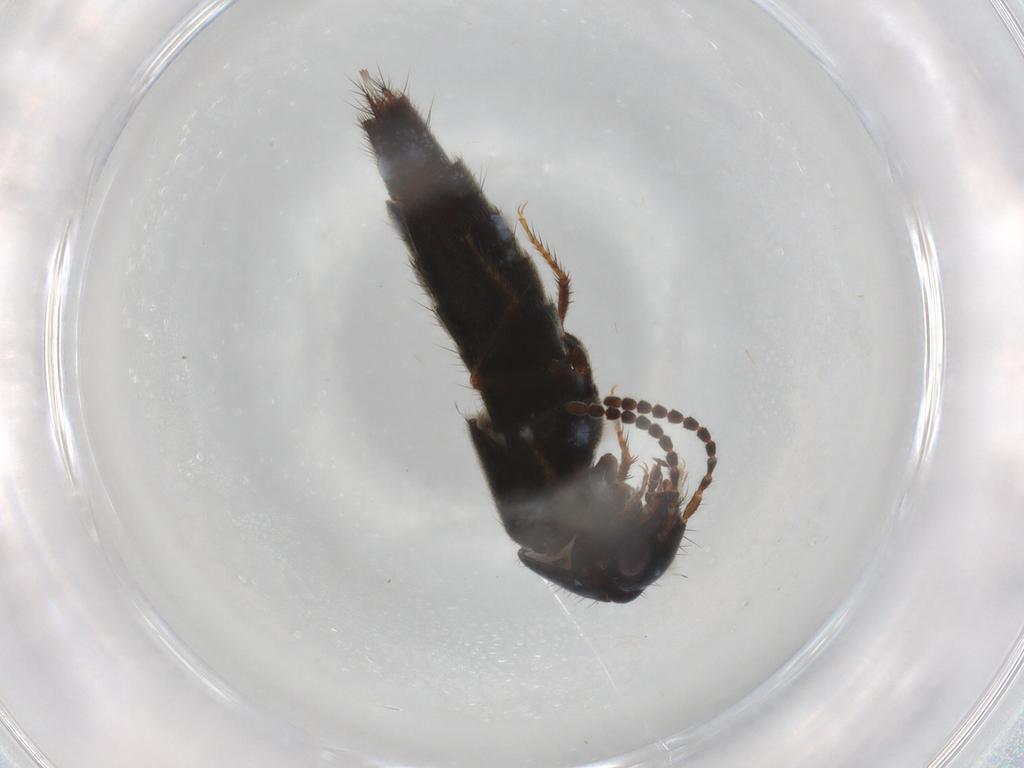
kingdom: Animalia
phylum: Arthropoda
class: Insecta
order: Coleoptera
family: Staphylinidae
